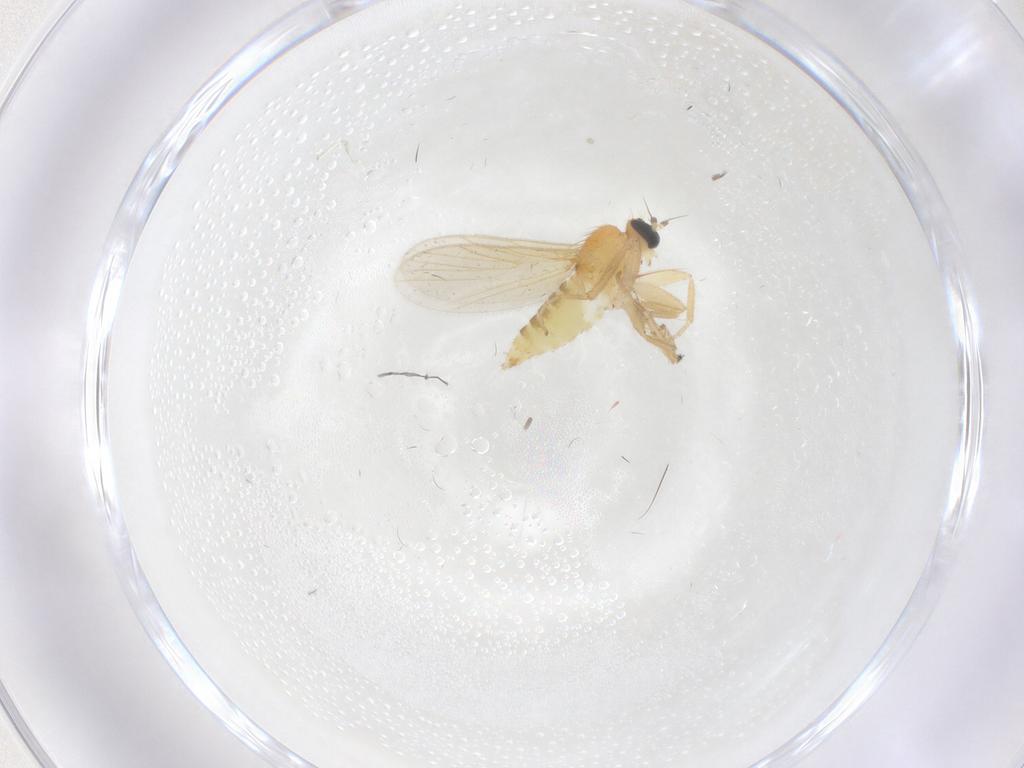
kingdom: Animalia
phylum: Arthropoda
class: Insecta
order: Diptera
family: Hybotidae
